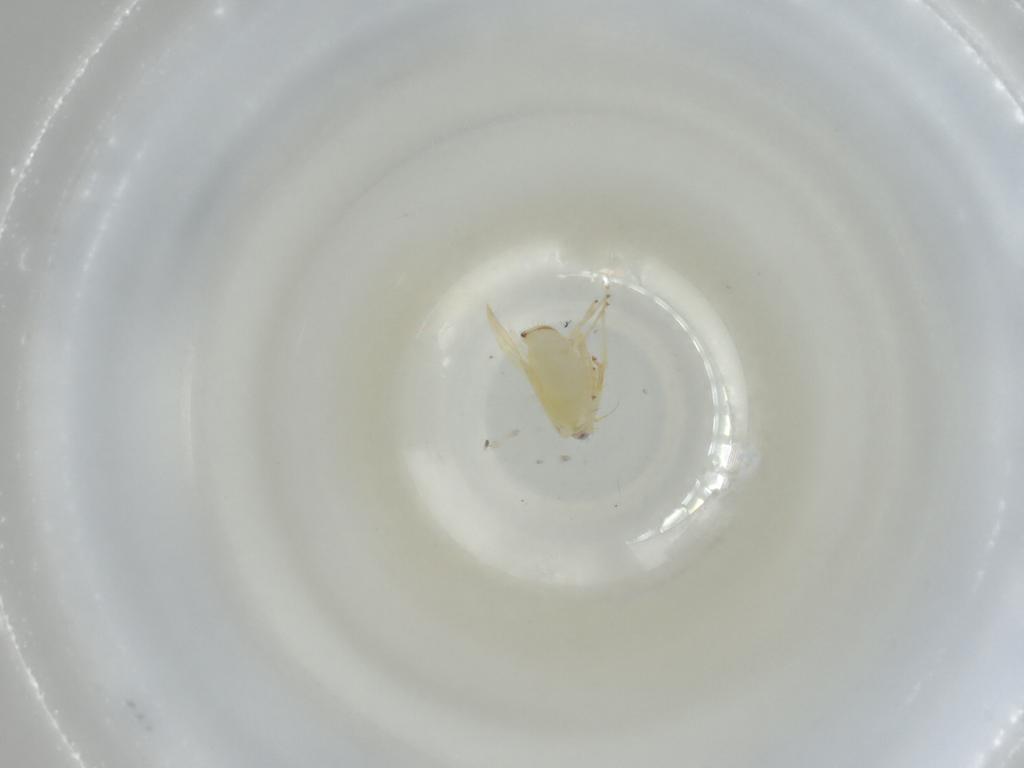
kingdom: Animalia
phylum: Arthropoda
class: Insecta
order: Hemiptera
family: Cicadellidae
